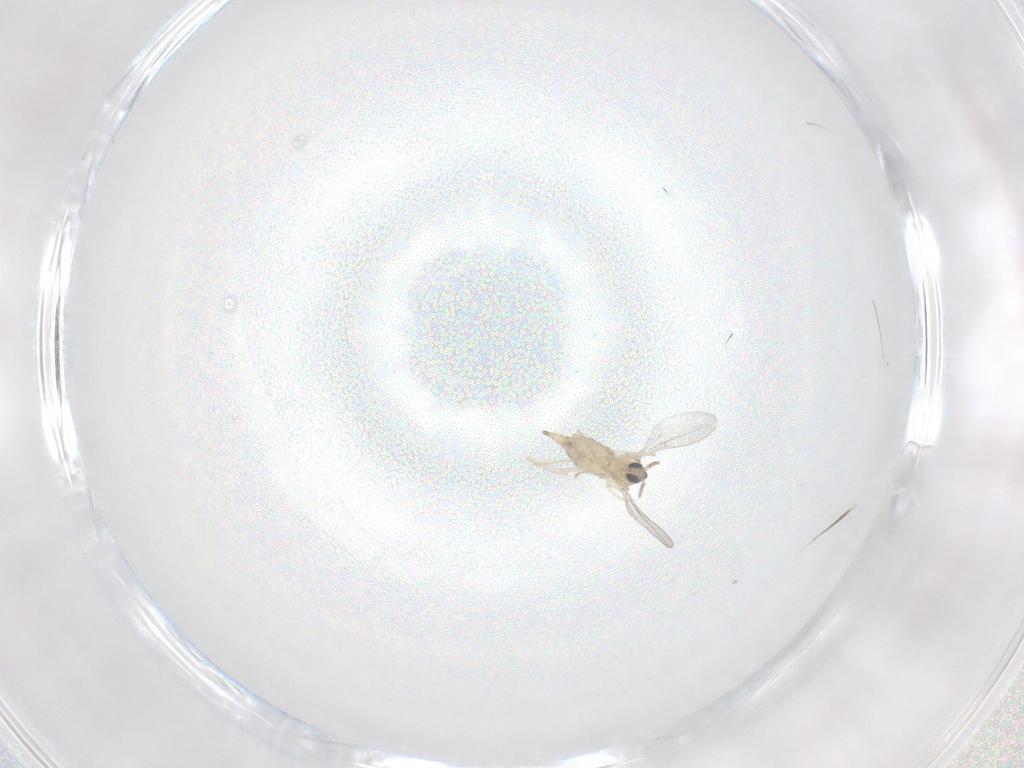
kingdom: Animalia
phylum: Arthropoda
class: Insecta
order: Diptera
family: Cecidomyiidae
